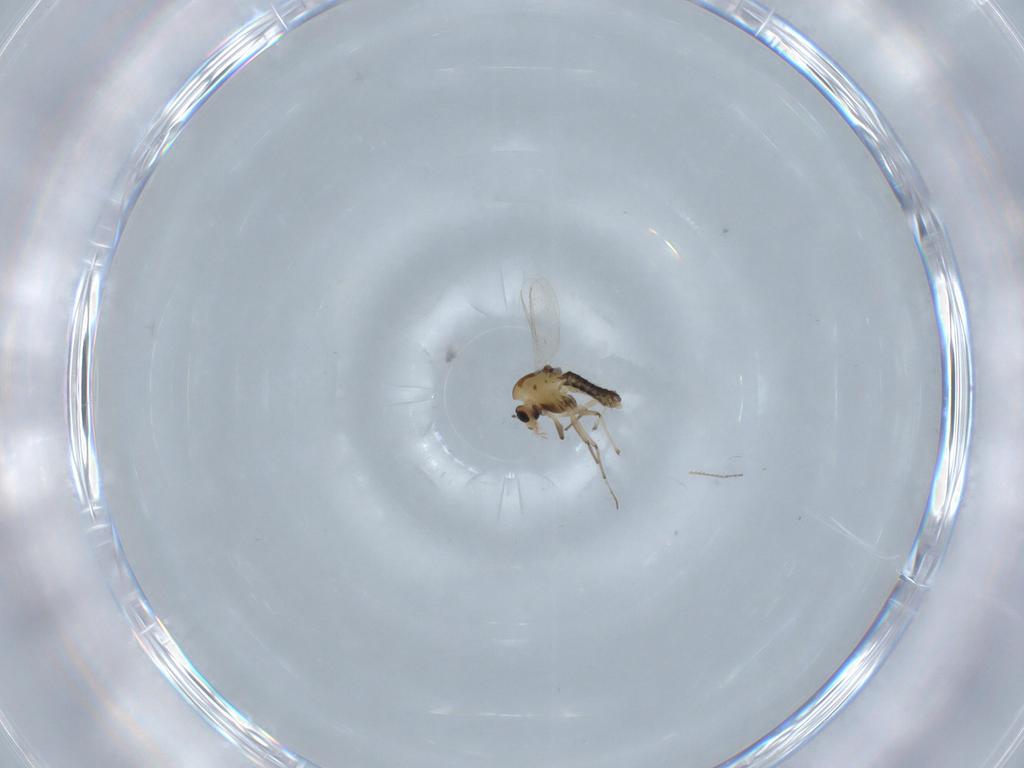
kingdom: Animalia
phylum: Arthropoda
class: Insecta
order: Diptera
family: Chironomidae
